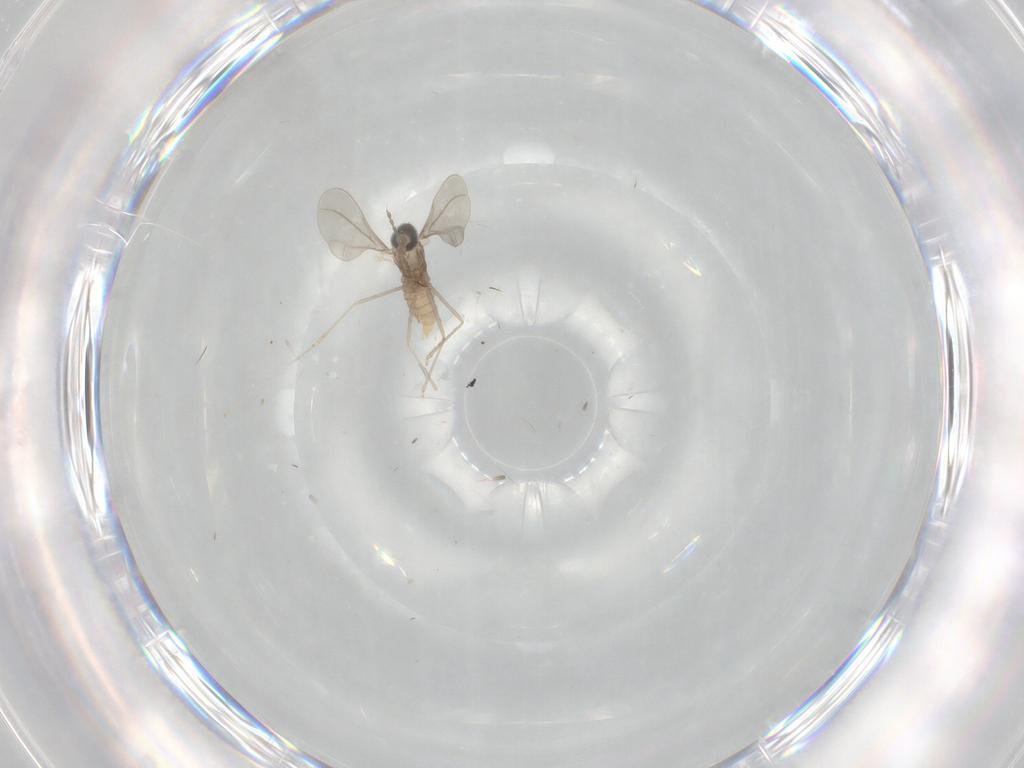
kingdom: Animalia
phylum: Arthropoda
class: Insecta
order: Diptera
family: Cecidomyiidae
